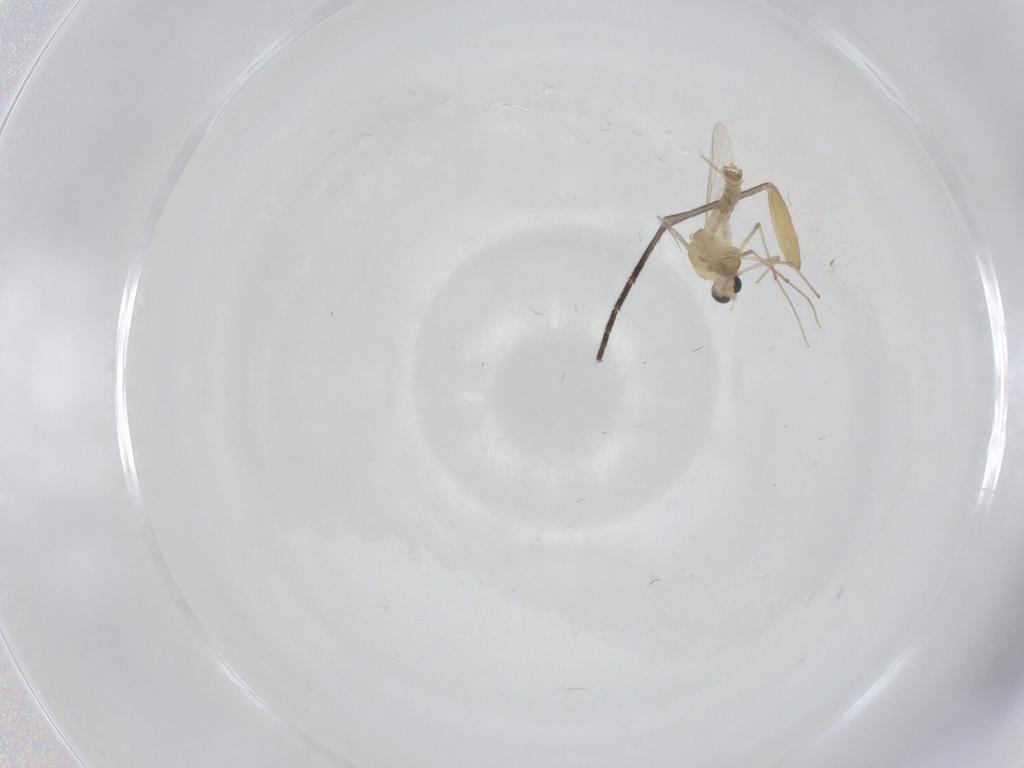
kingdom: Animalia
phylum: Arthropoda
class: Insecta
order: Diptera
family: Chironomidae
